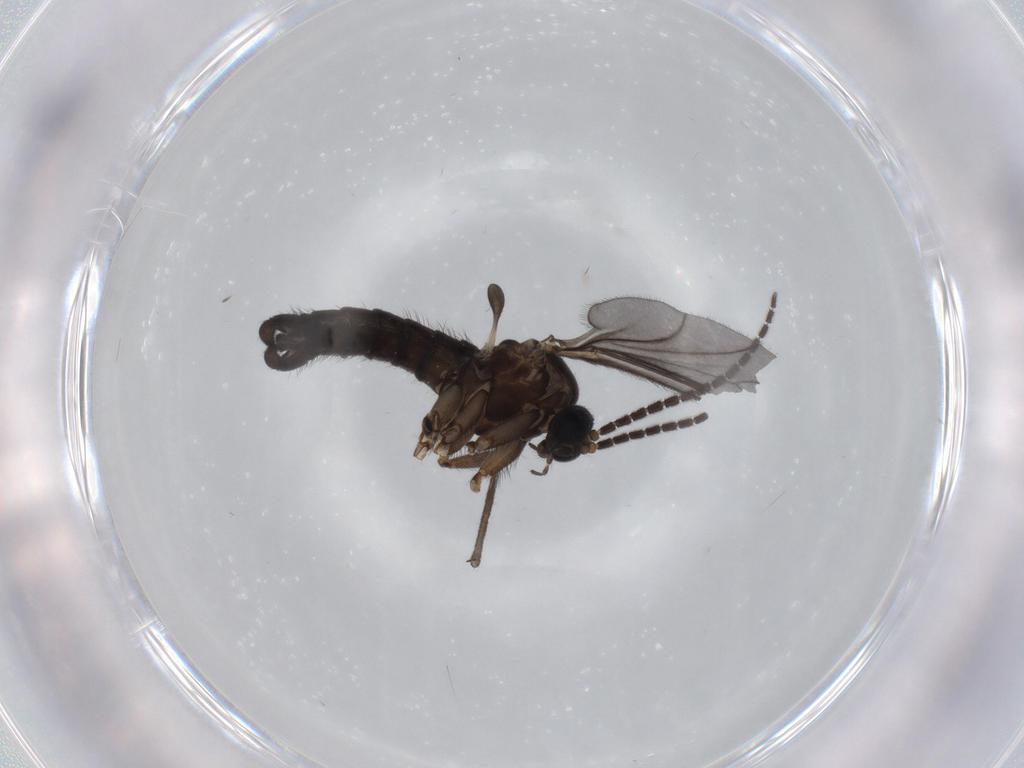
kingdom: Animalia
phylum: Arthropoda
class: Insecta
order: Diptera
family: Sciaridae
